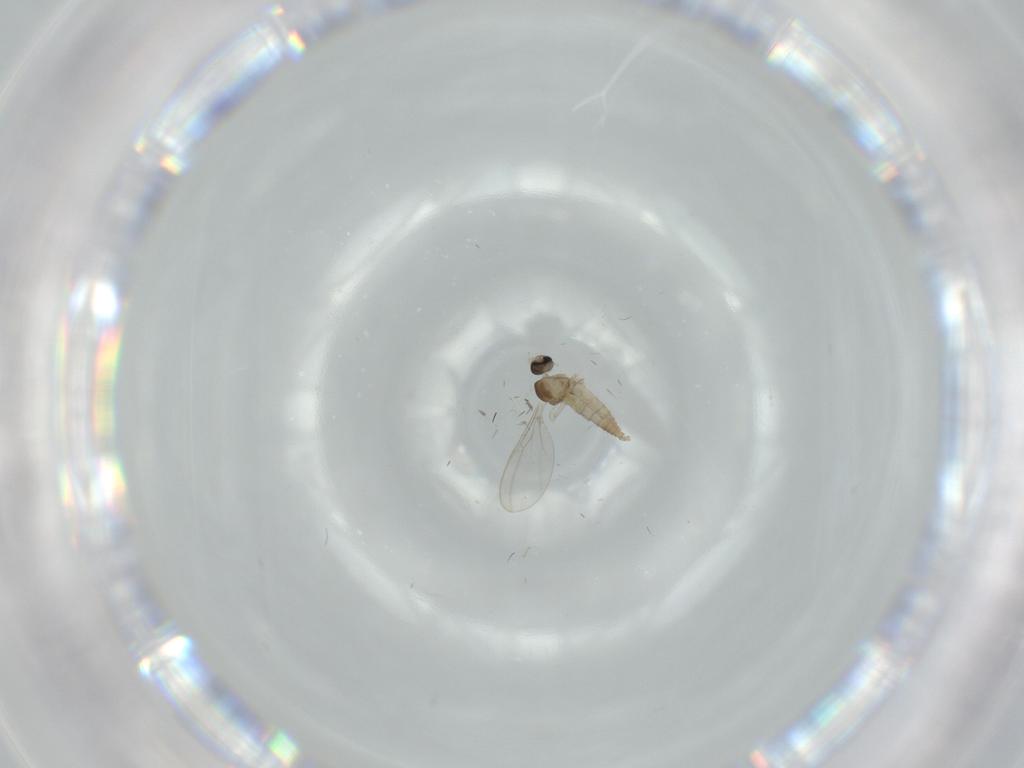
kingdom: Animalia
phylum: Arthropoda
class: Insecta
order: Diptera
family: Cecidomyiidae
